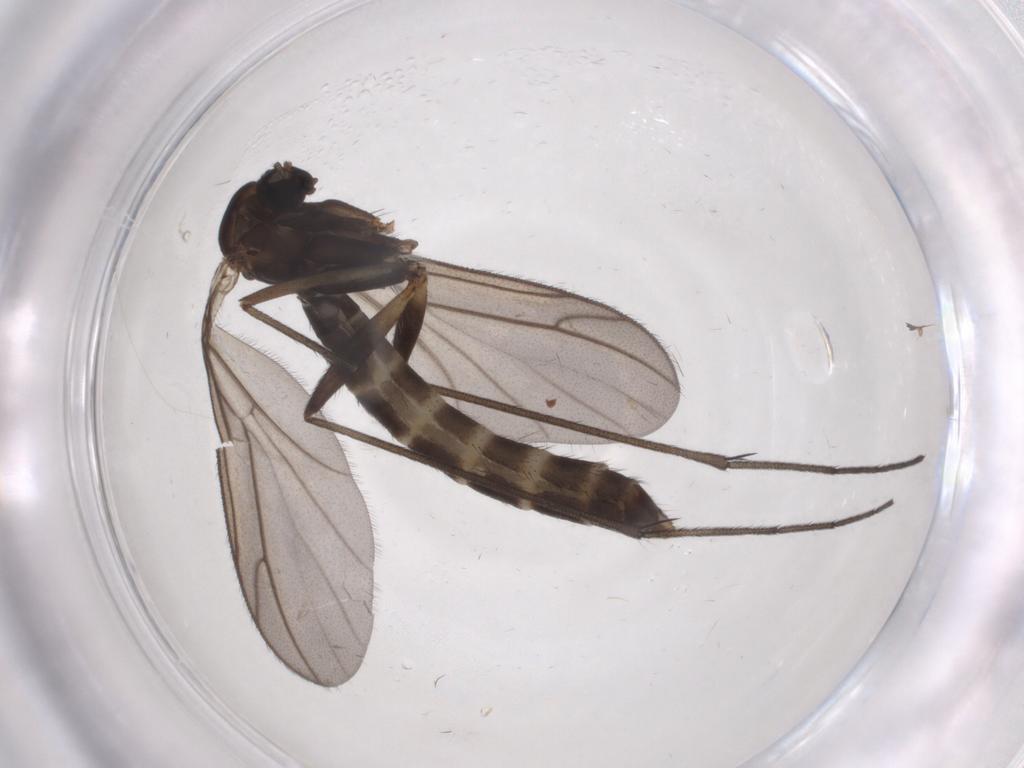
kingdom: Animalia
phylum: Arthropoda
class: Insecta
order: Diptera
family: Ditomyiidae
